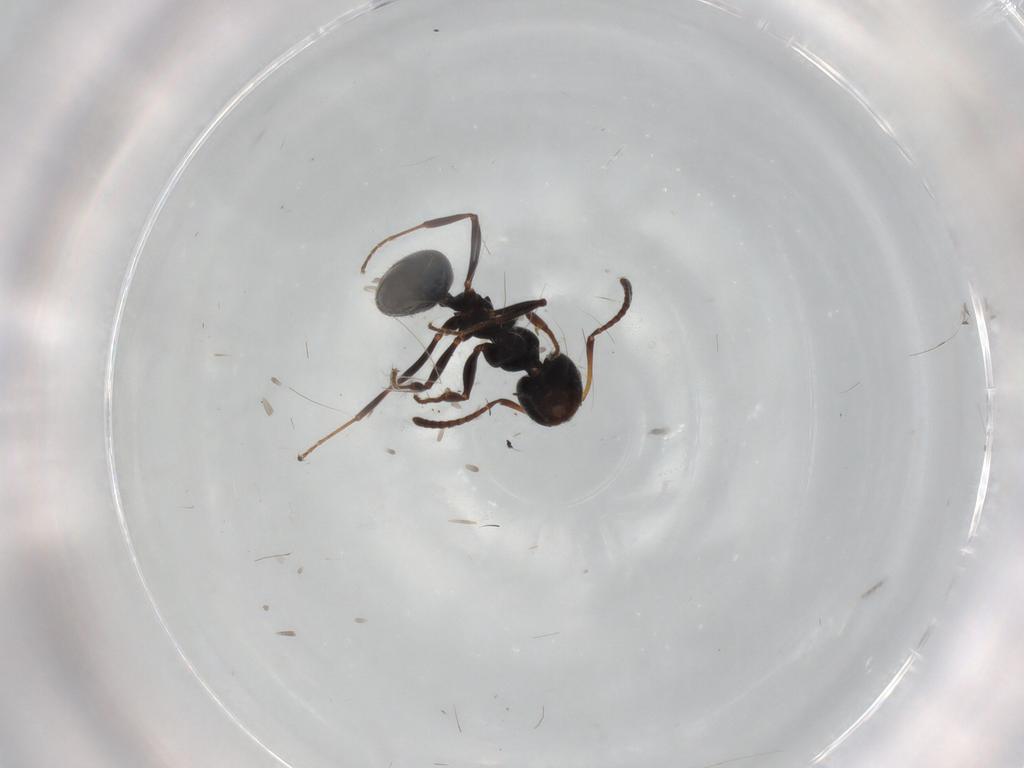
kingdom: Animalia
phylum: Arthropoda
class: Insecta
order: Hymenoptera
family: Formicidae
